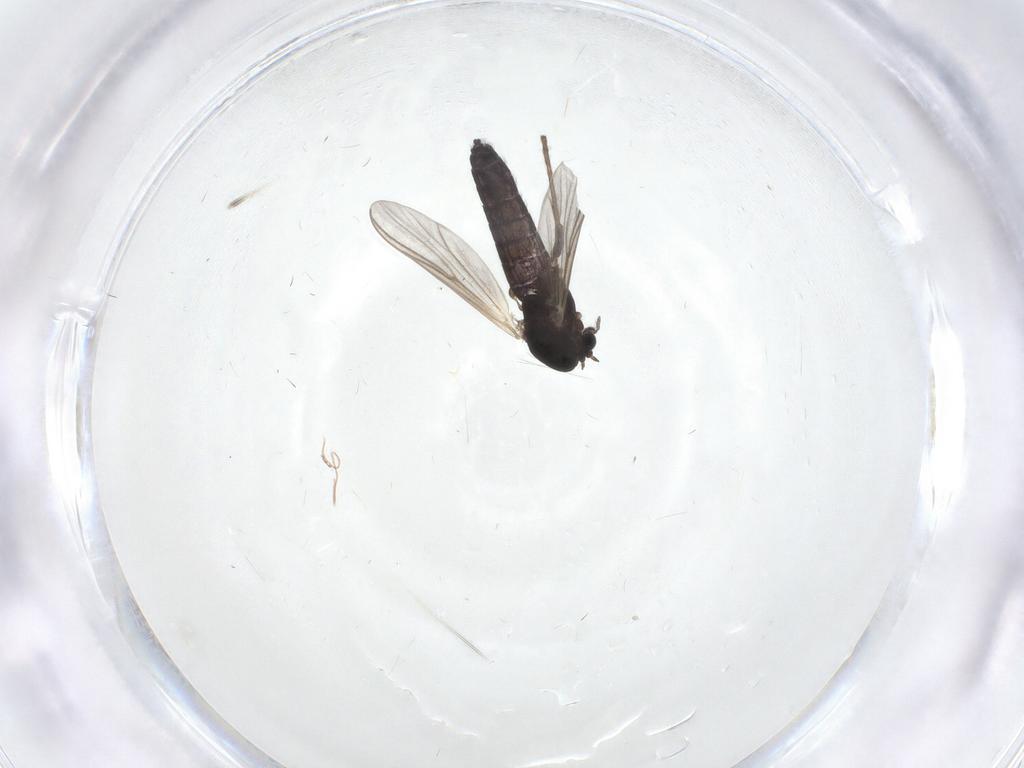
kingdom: Animalia
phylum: Arthropoda
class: Insecta
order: Diptera
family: Chironomidae
